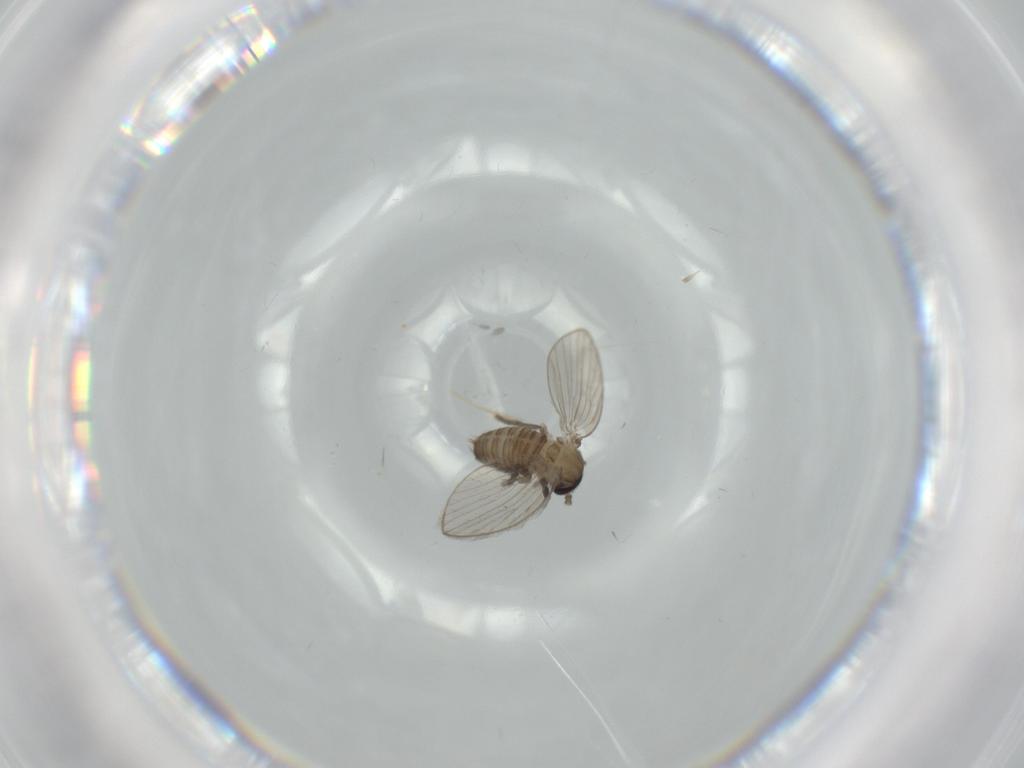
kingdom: Animalia
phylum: Arthropoda
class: Insecta
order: Diptera
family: Psychodidae
